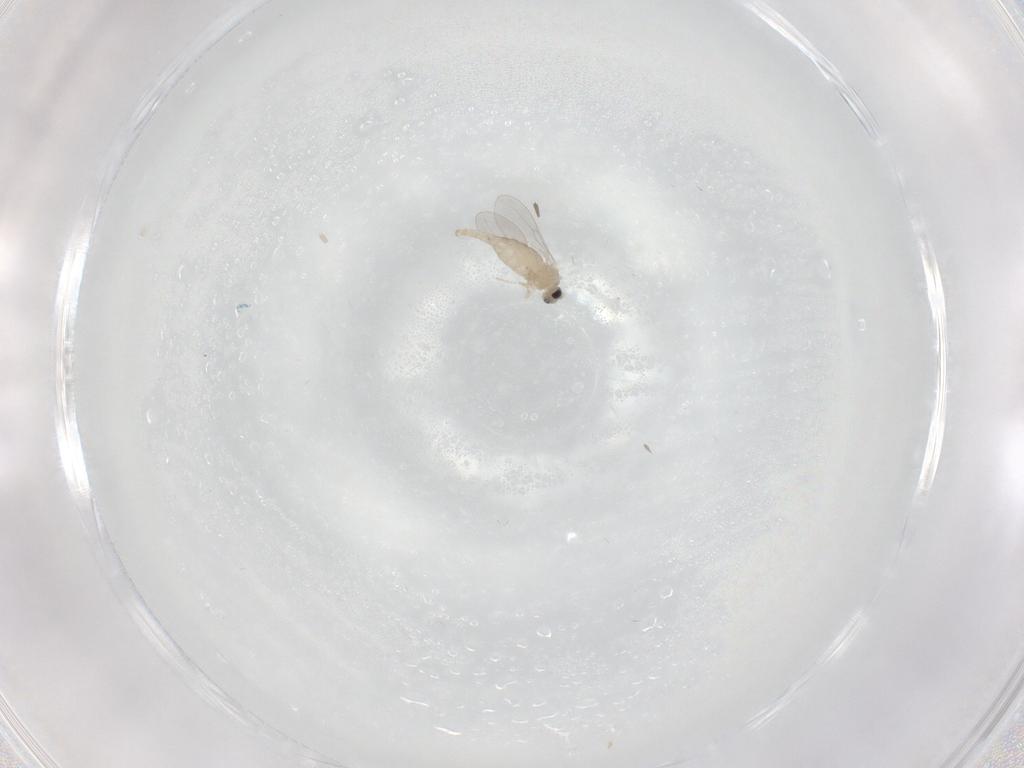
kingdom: Animalia
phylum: Arthropoda
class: Insecta
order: Diptera
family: Cecidomyiidae
